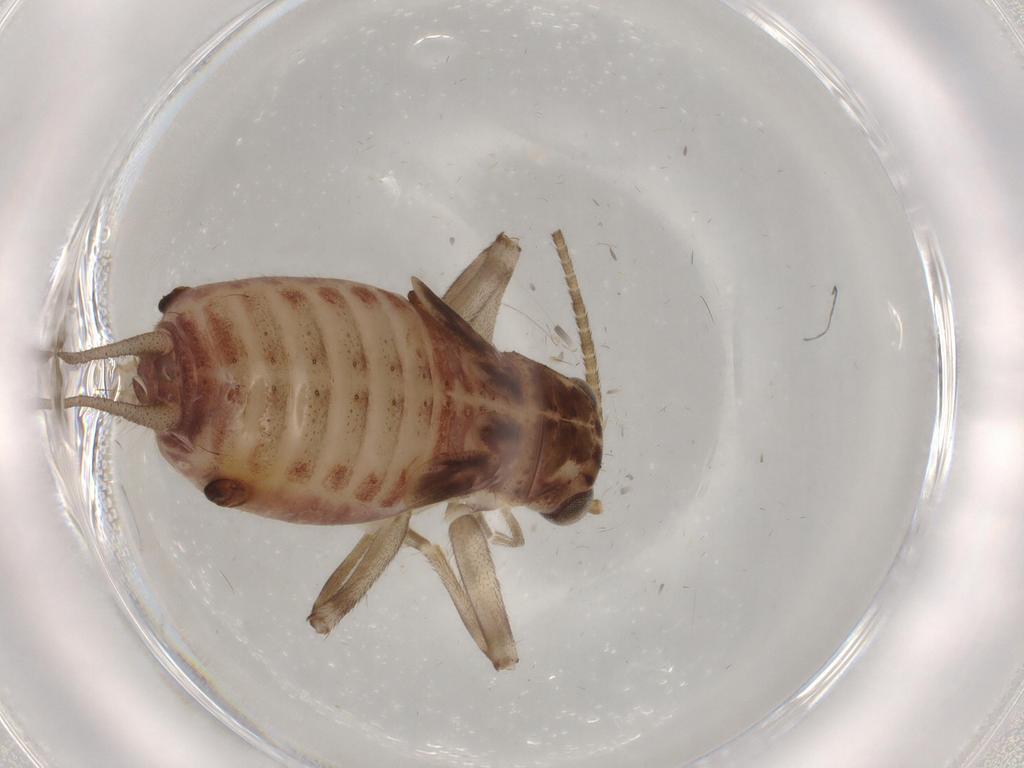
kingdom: Animalia
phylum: Arthropoda
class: Insecta
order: Orthoptera
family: Trigonidiidae
